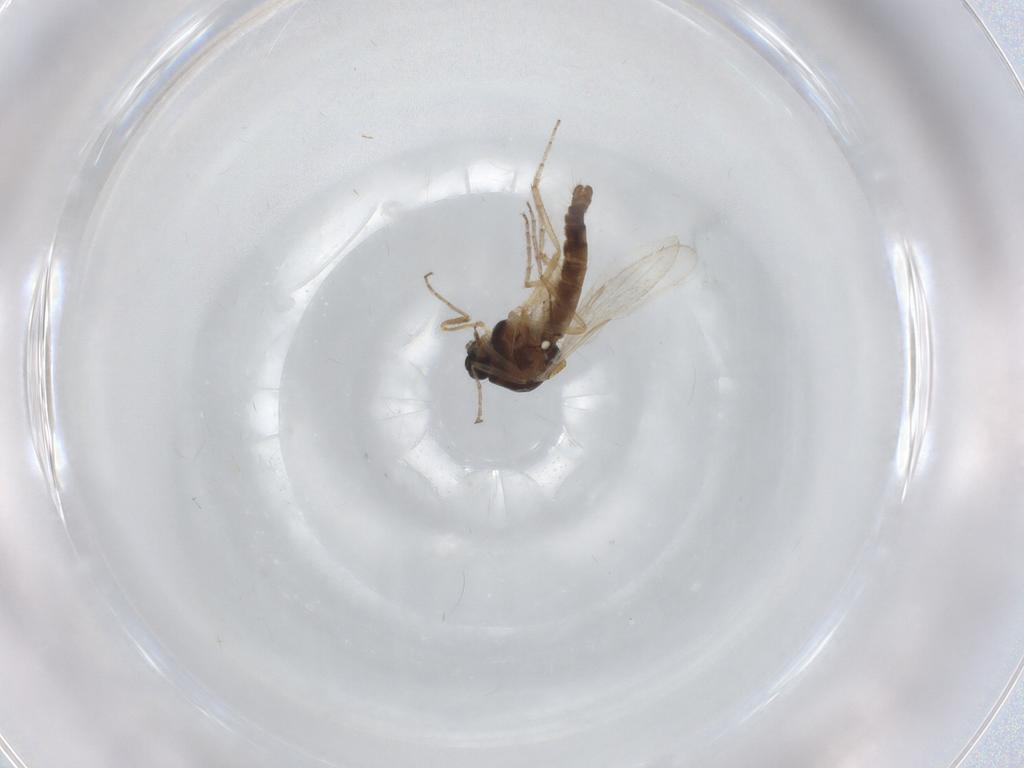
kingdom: Animalia
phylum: Arthropoda
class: Insecta
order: Diptera
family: Ceratopogonidae
